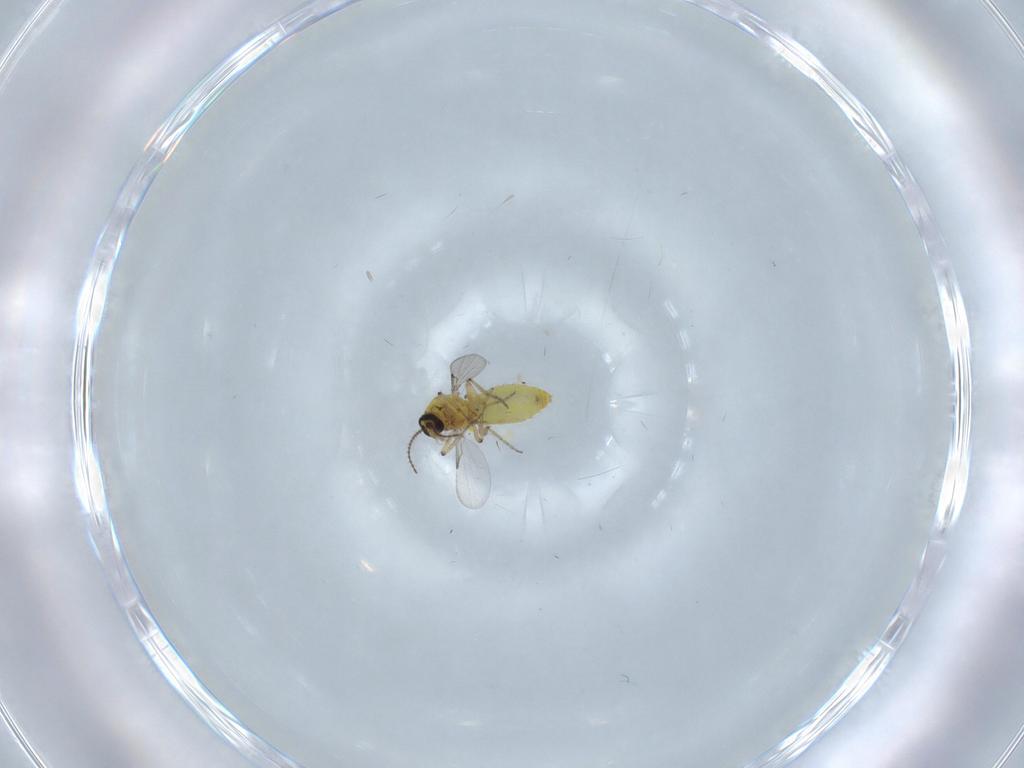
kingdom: Animalia
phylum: Arthropoda
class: Insecta
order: Diptera
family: Ceratopogonidae
